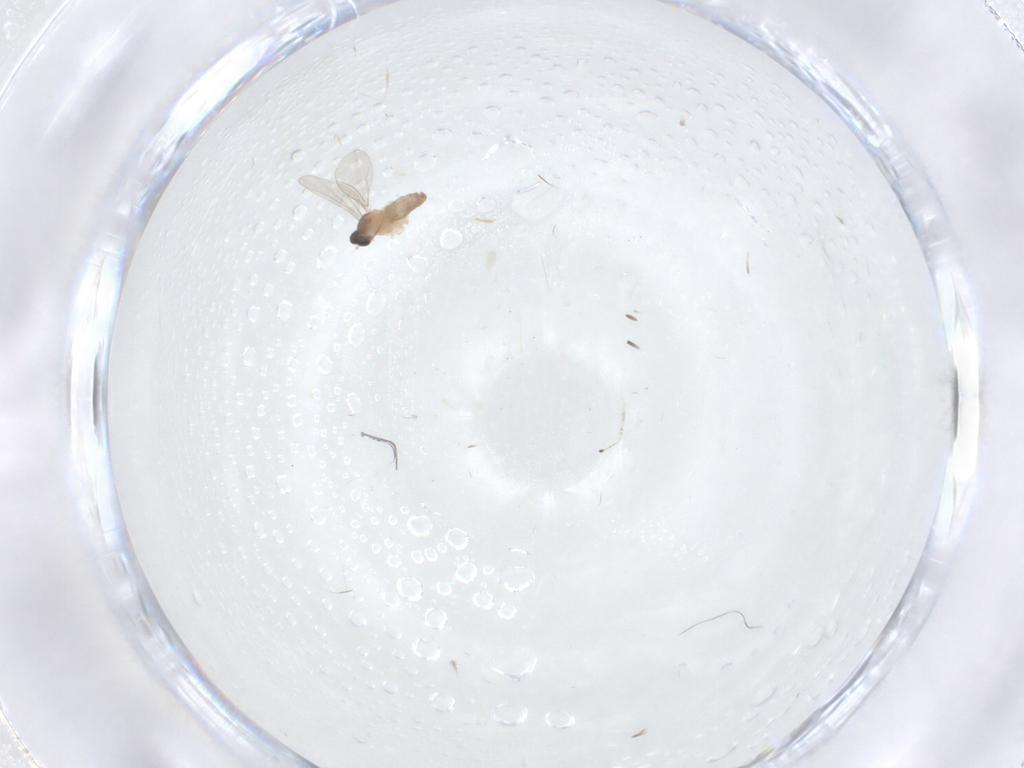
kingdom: Animalia
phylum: Arthropoda
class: Insecta
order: Diptera
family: Cecidomyiidae
